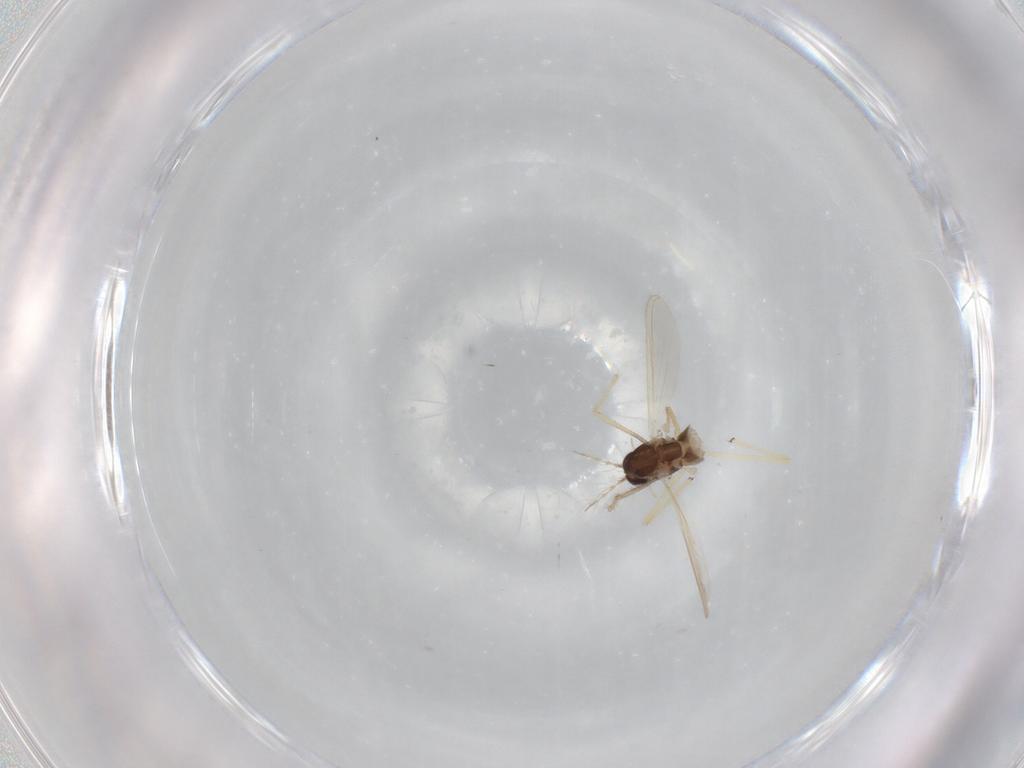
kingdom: Animalia
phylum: Arthropoda
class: Insecta
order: Diptera
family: Chironomidae
